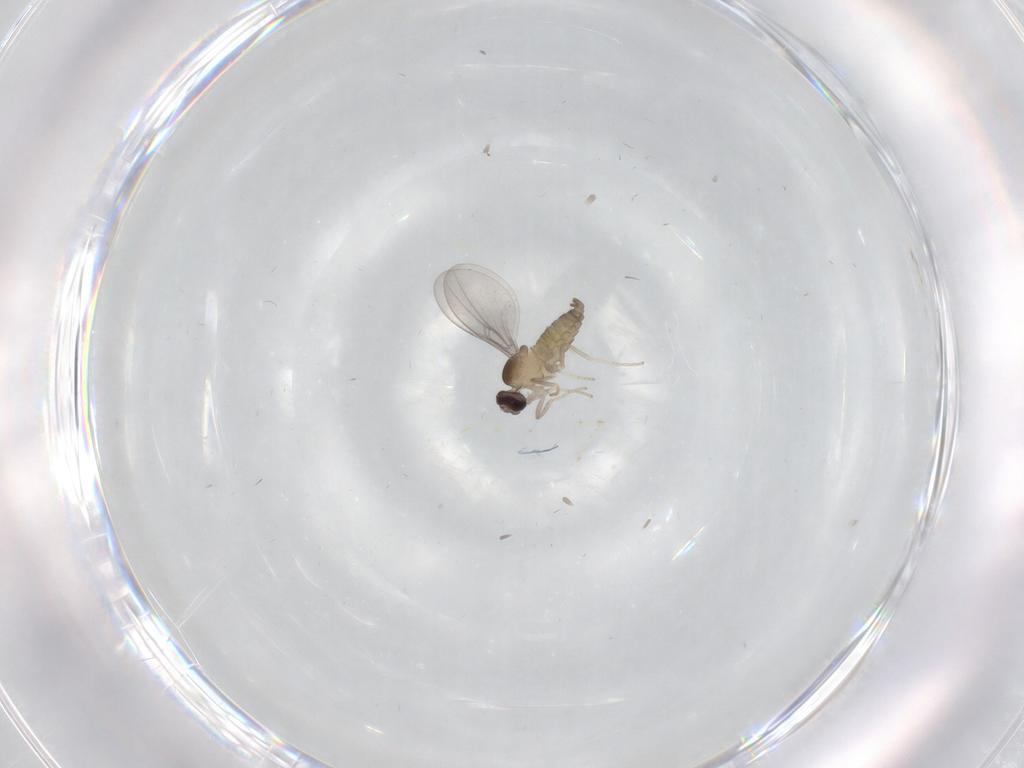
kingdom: Animalia
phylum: Arthropoda
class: Insecta
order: Diptera
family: Cecidomyiidae
